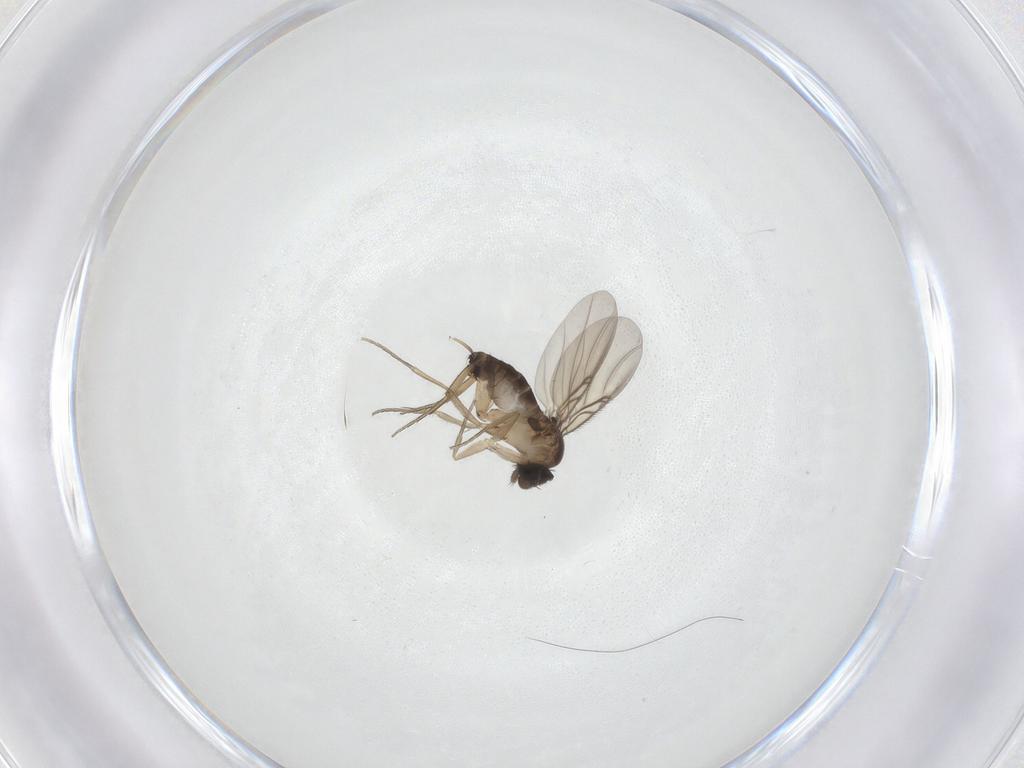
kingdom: Animalia
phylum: Arthropoda
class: Insecta
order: Diptera
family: Phoridae
